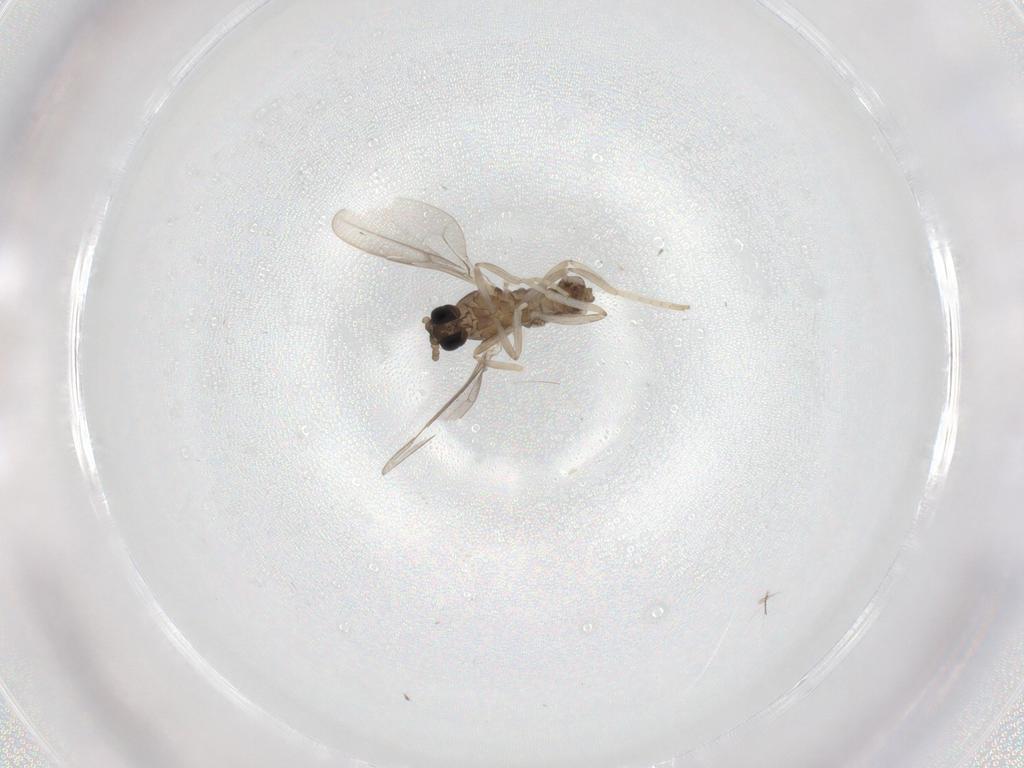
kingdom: Animalia
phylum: Arthropoda
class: Insecta
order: Diptera
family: Cecidomyiidae
